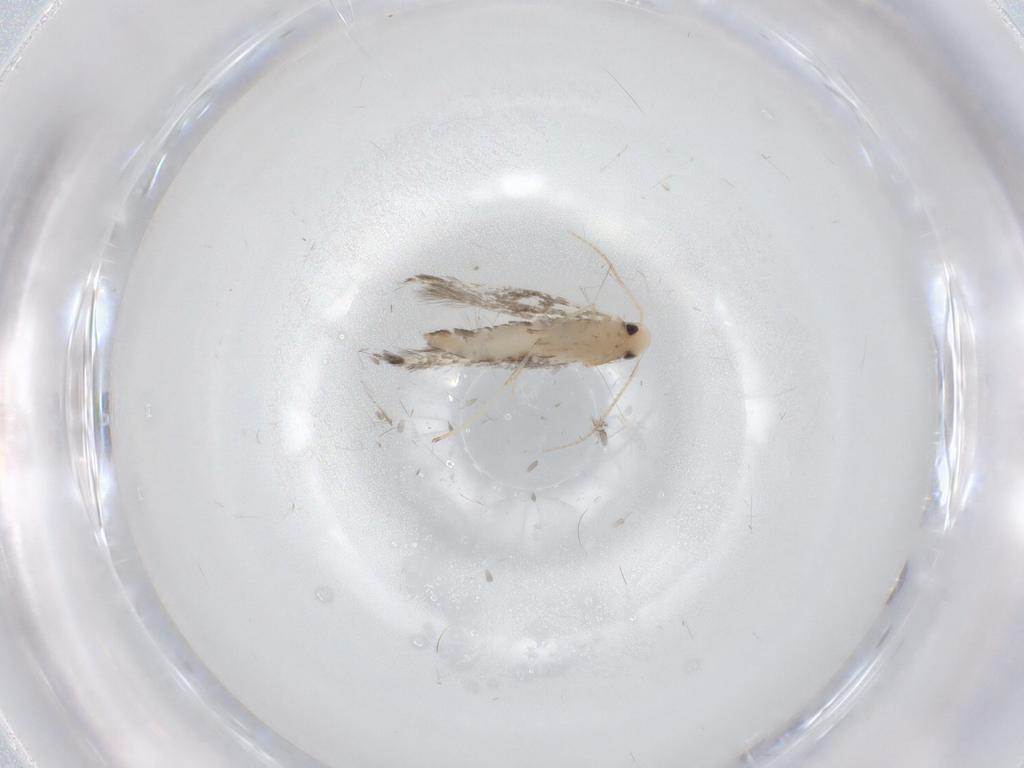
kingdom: Animalia
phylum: Arthropoda
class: Insecta
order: Lepidoptera
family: Nepticulidae
